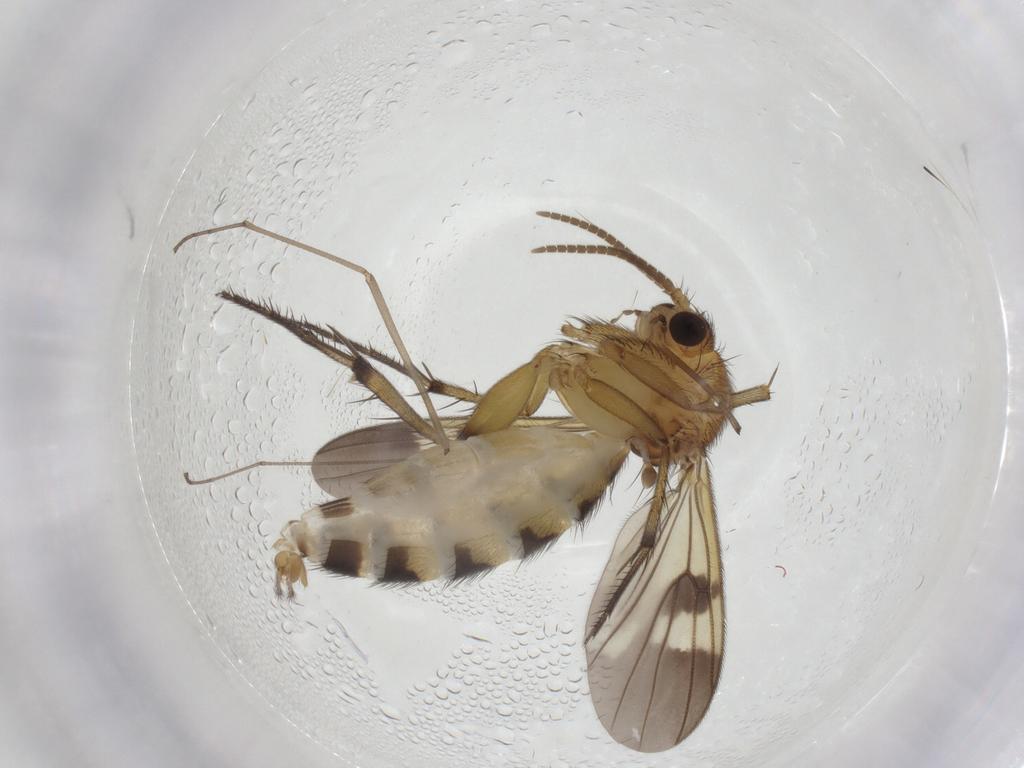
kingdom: Animalia
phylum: Arthropoda
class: Insecta
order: Diptera
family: Mycetophilidae
